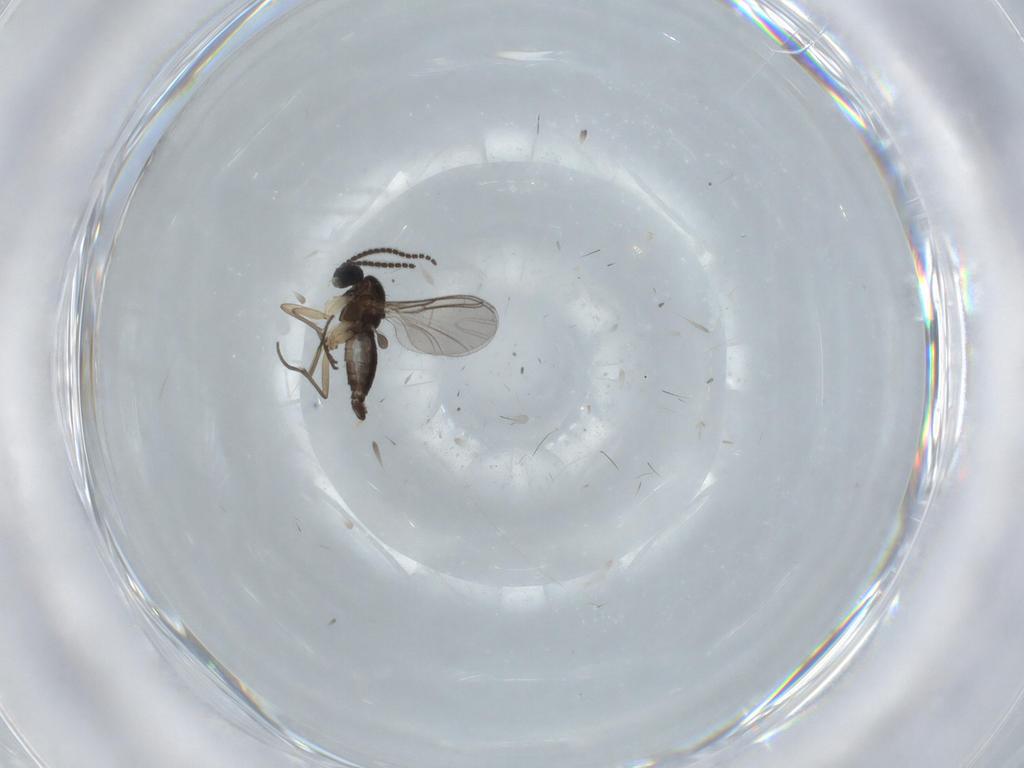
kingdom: Animalia
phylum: Arthropoda
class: Insecta
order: Diptera
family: Sciaridae
